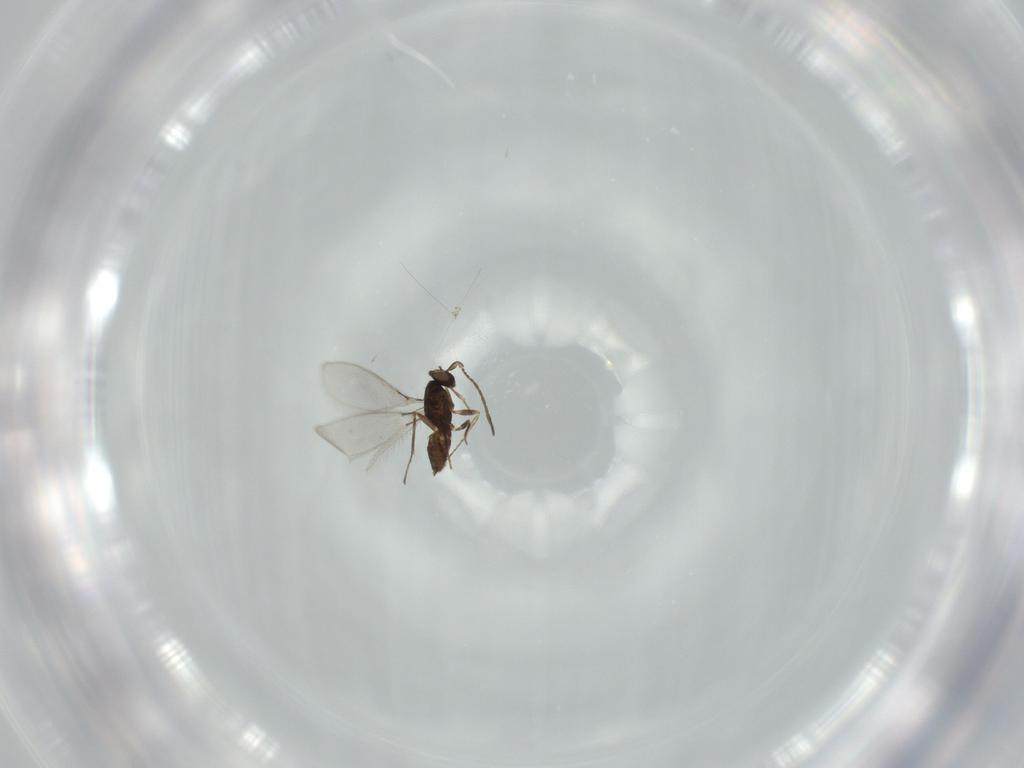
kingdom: Animalia
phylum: Arthropoda
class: Insecta
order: Hymenoptera
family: Mymaridae
